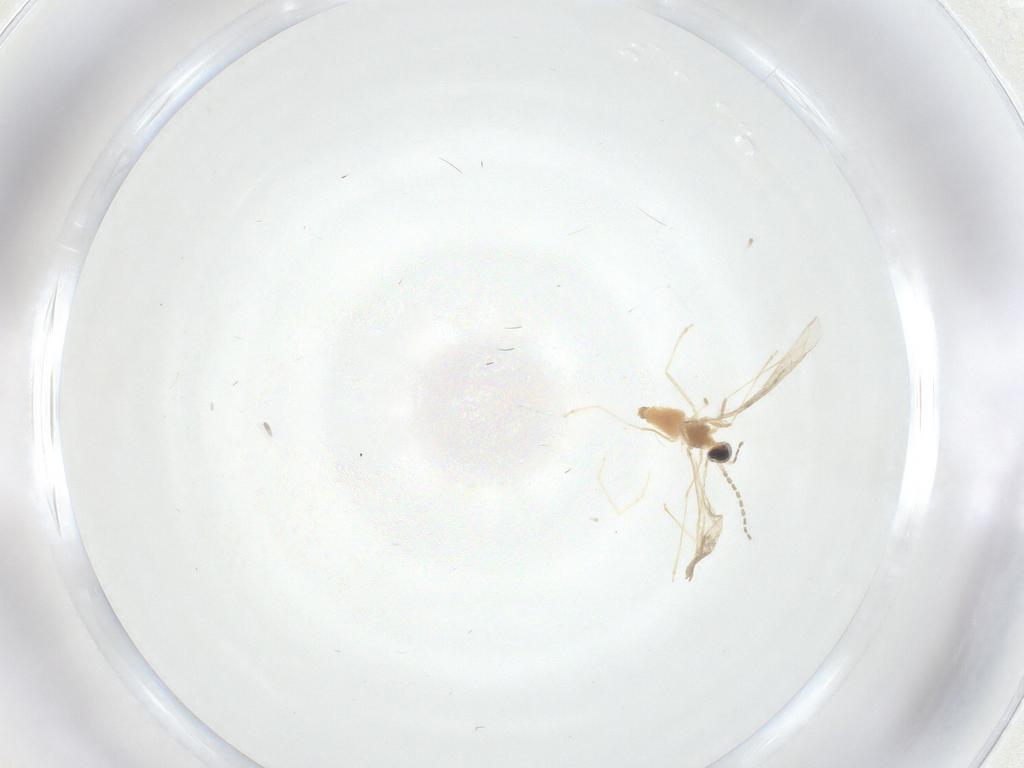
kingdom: Animalia
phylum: Arthropoda
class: Insecta
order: Diptera
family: Cecidomyiidae
